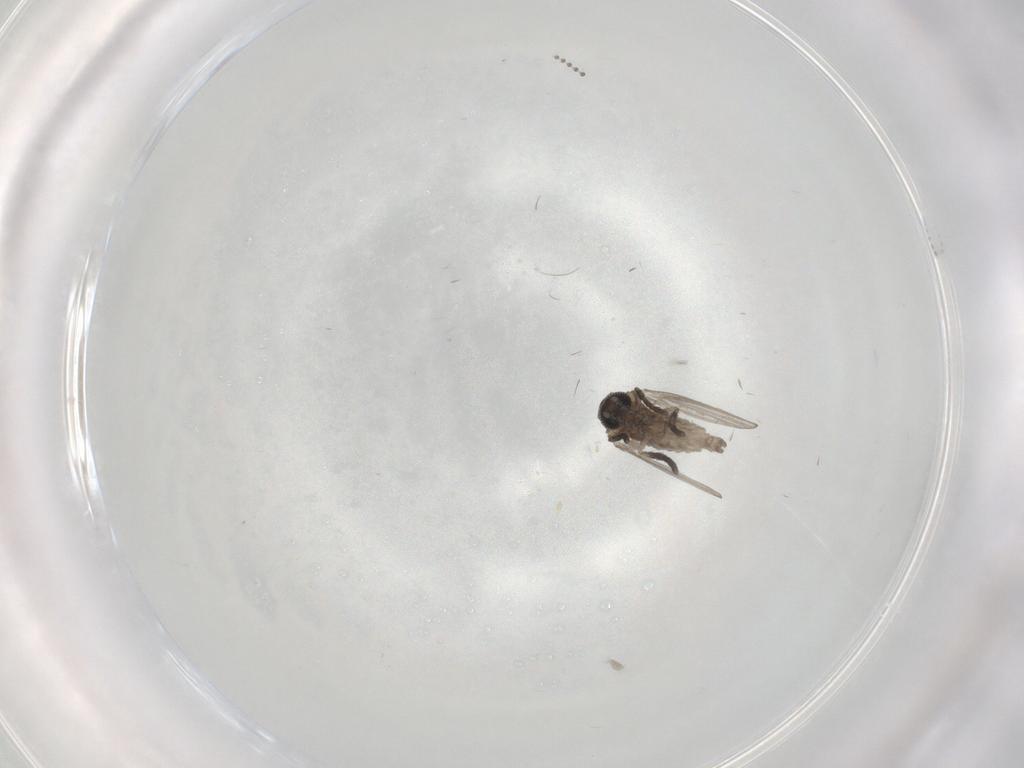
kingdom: Animalia
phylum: Arthropoda
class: Insecta
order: Diptera
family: Psychodidae
